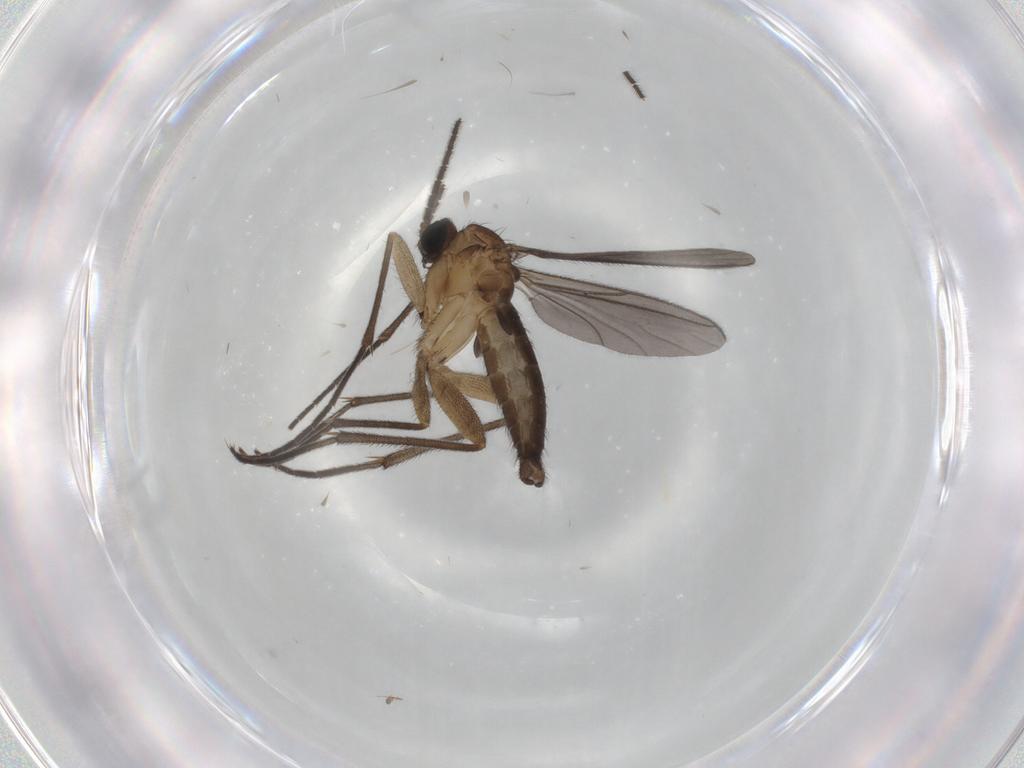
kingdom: Animalia
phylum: Arthropoda
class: Insecta
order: Diptera
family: Sciaridae
